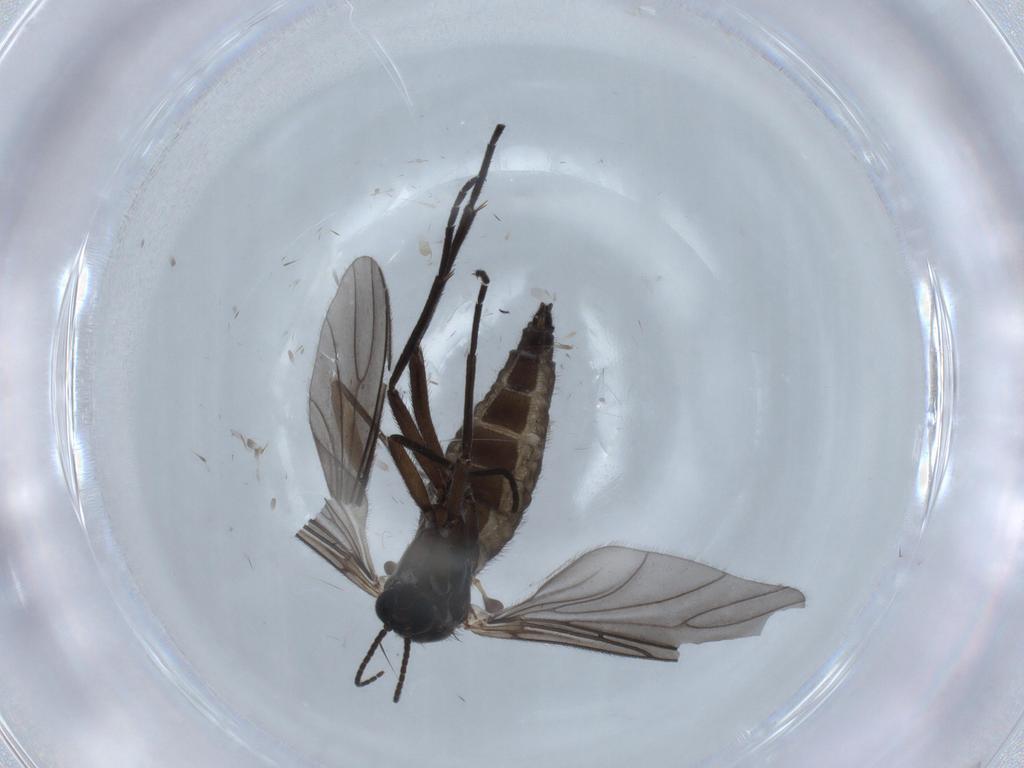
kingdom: Animalia
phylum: Arthropoda
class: Insecta
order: Diptera
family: Sciaridae
